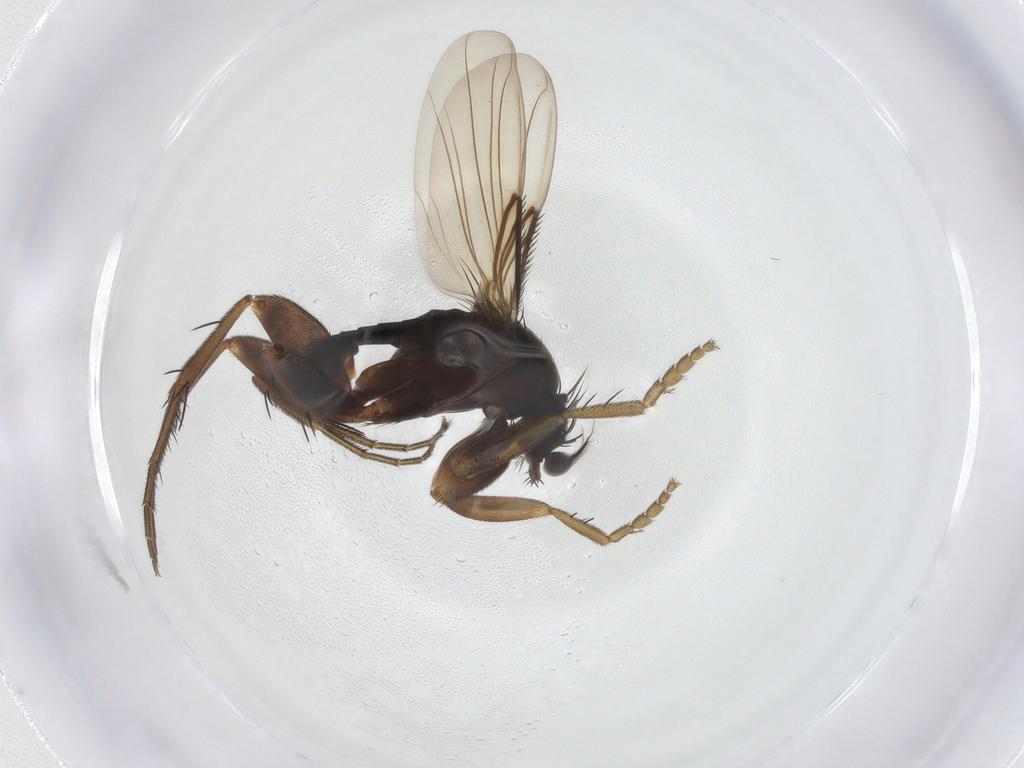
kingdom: Animalia
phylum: Arthropoda
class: Insecta
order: Diptera
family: Phoridae
